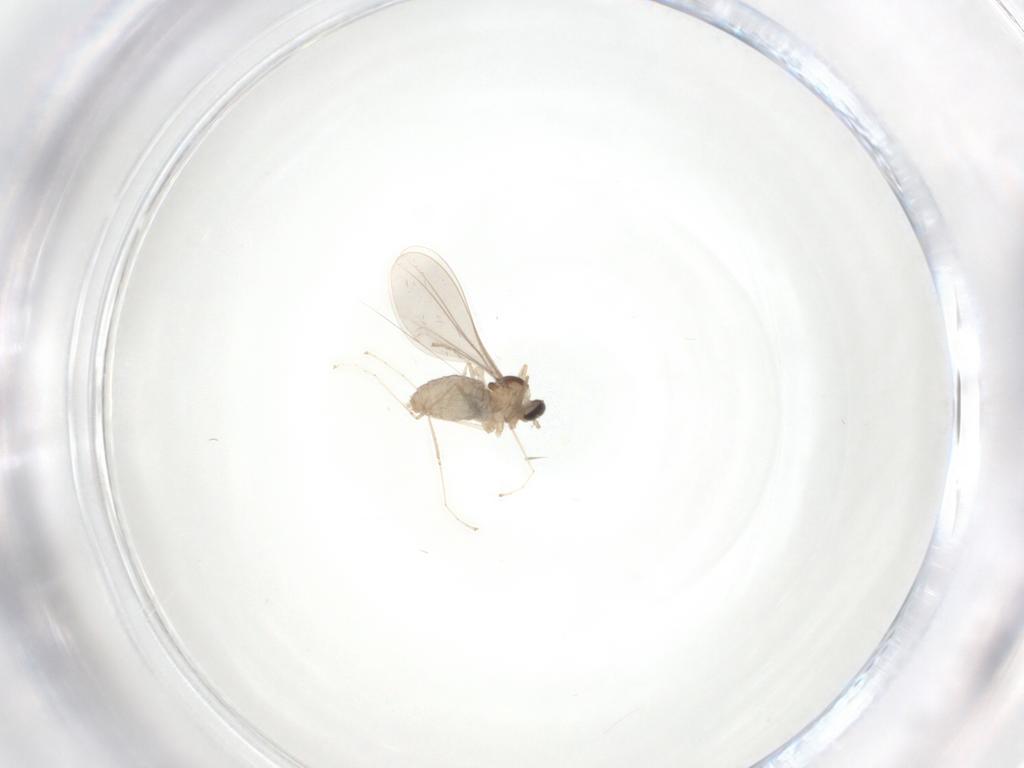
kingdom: Animalia
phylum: Arthropoda
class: Insecta
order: Diptera
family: Cecidomyiidae
